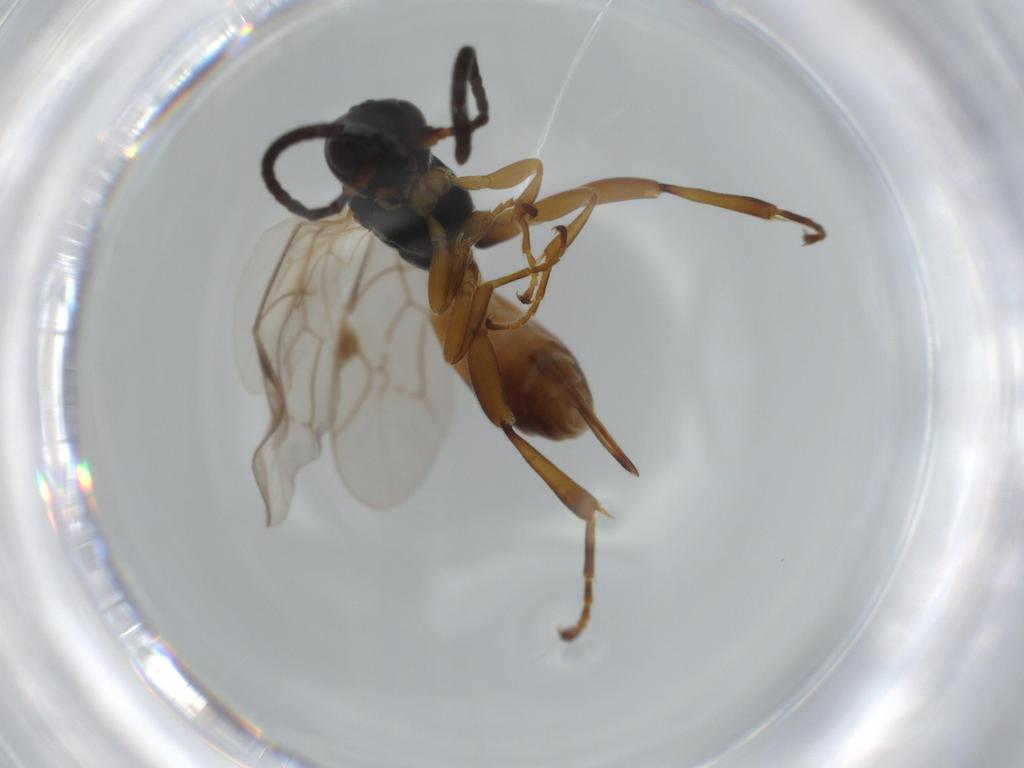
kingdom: Animalia
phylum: Arthropoda
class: Insecta
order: Hymenoptera
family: Ichneumonidae
